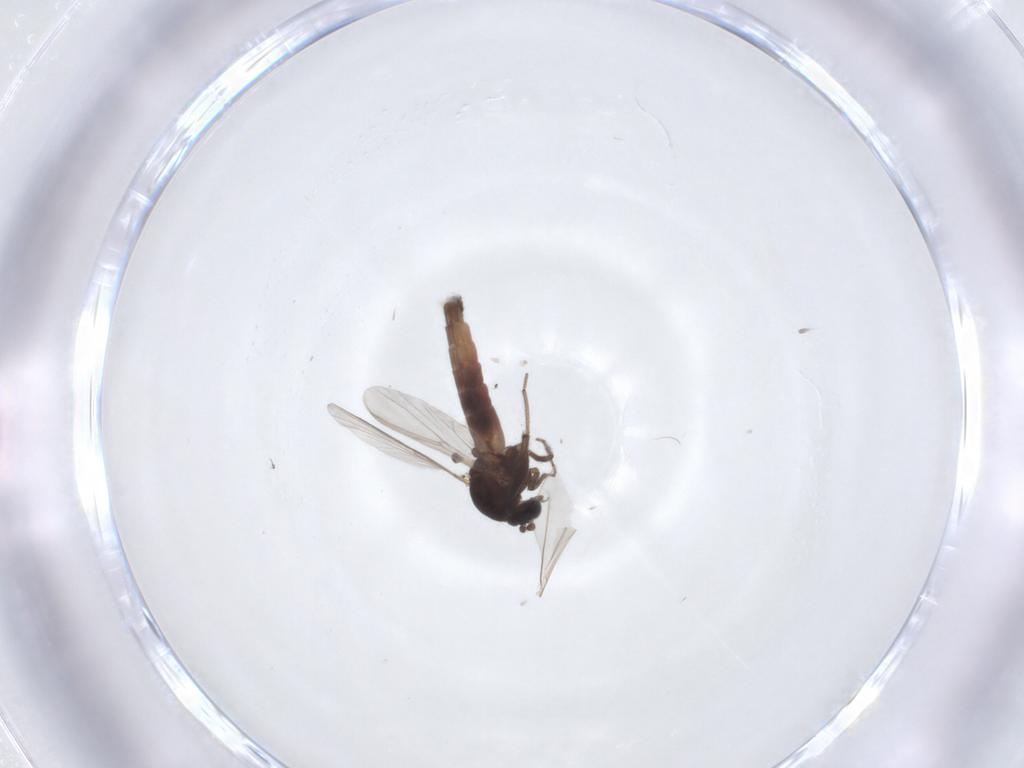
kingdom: Animalia
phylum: Arthropoda
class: Insecta
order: Diptera
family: Ceratopogonidae
